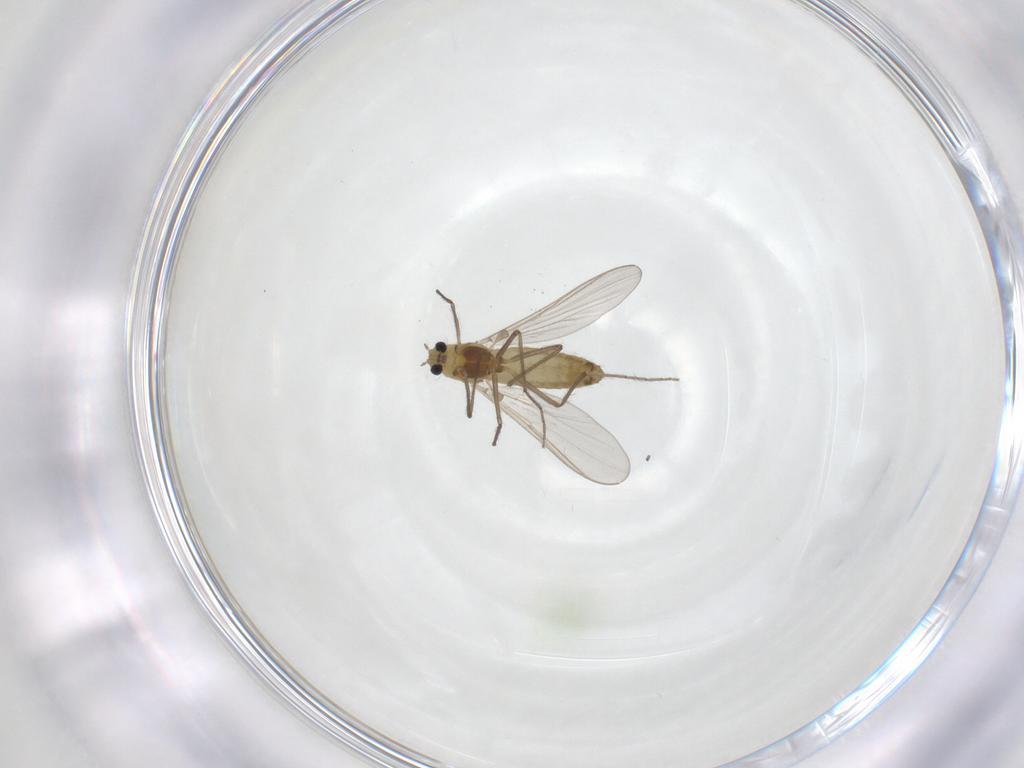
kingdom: Animalia
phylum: Arthropoda
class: Insecta
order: Diptera
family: Chironomidae
